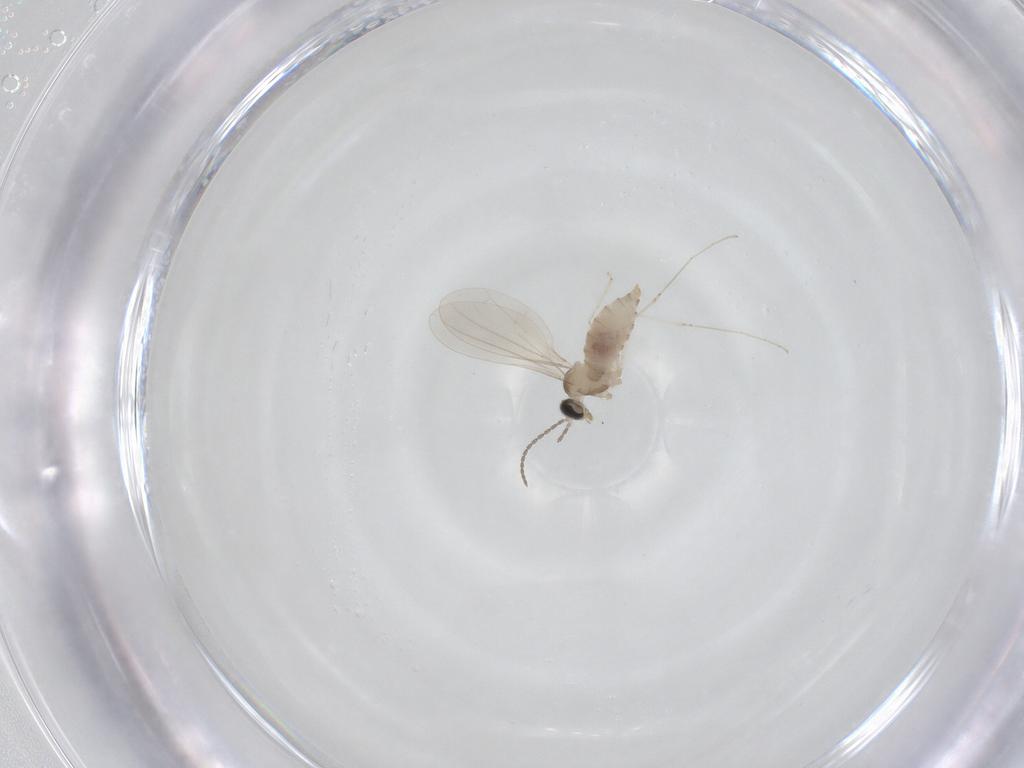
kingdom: Animalia
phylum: Arthropoda
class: Insecta
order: Diptera
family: Cecidomyiidae
